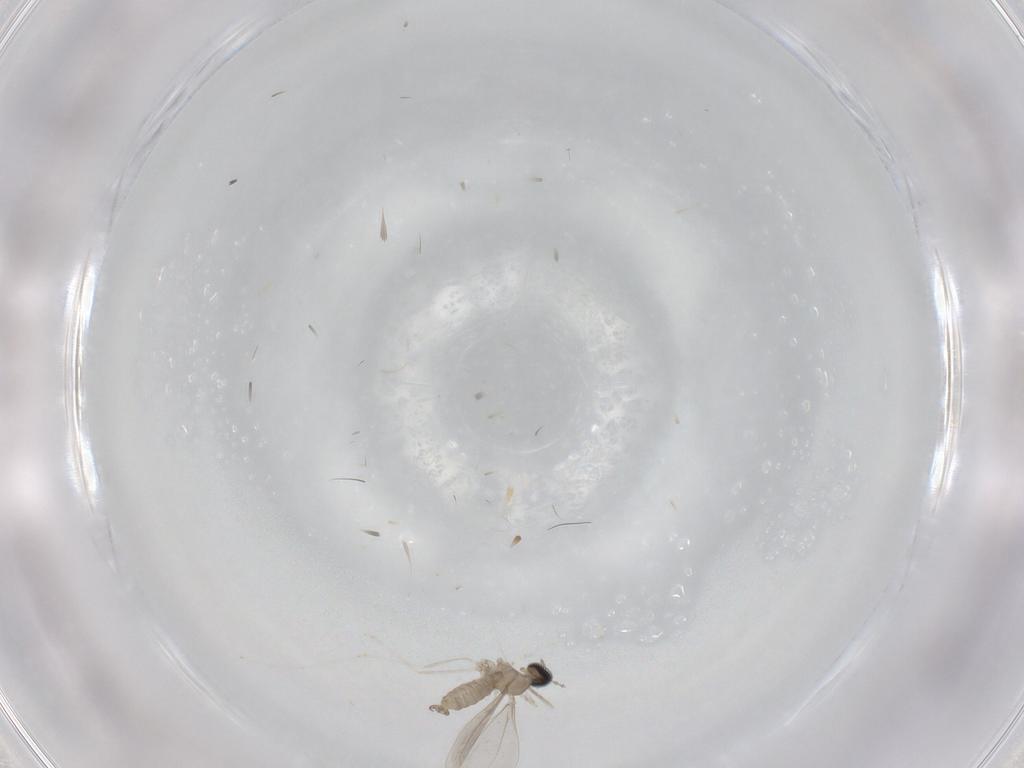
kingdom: Animalia
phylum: Arthropoda
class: Insecta
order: Diptera
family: Cecidomyiidae
